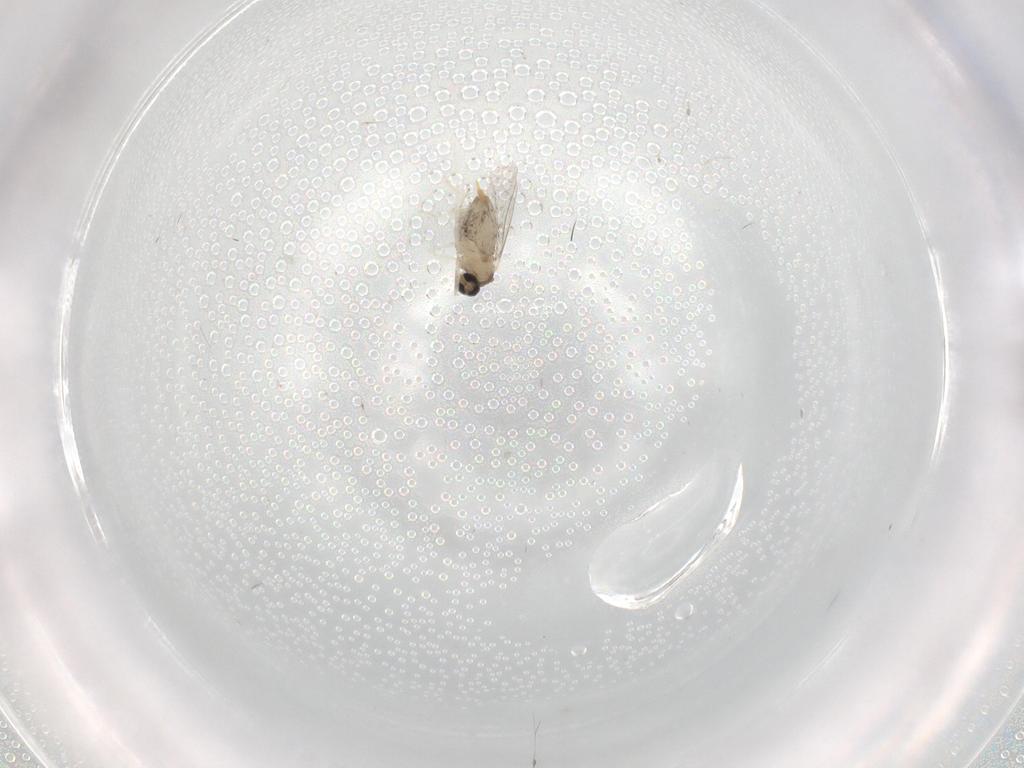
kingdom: Animalia
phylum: Arthropoda
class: Insecta
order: Diptera
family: Cecidomyiidae
